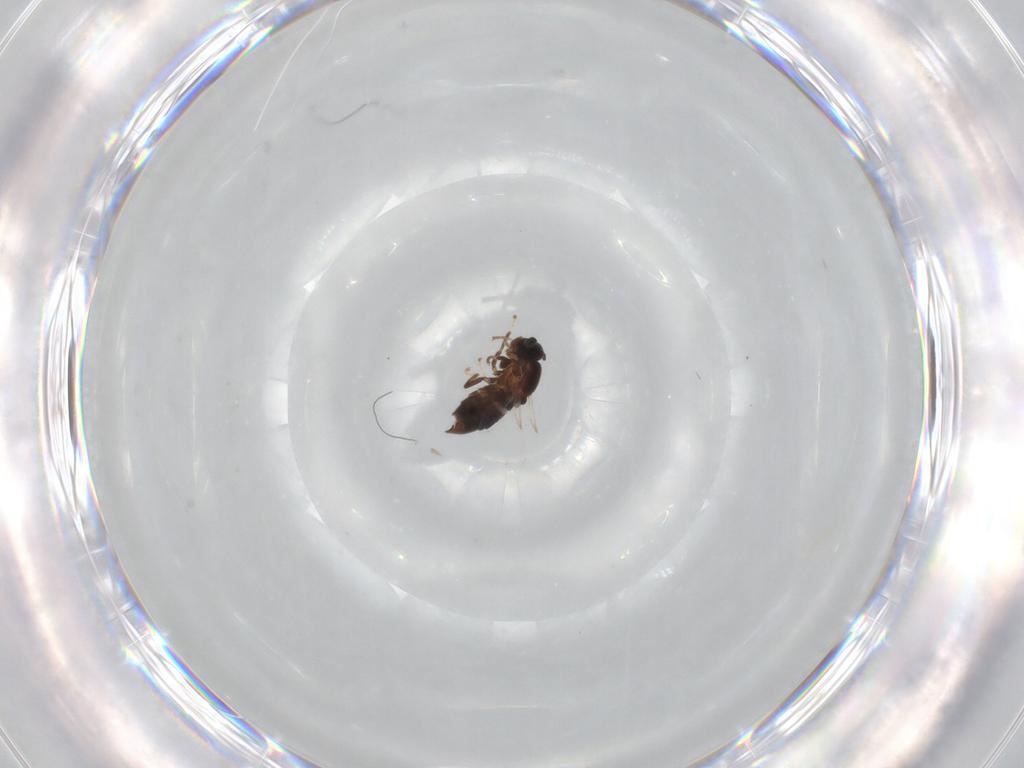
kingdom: Animalia
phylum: Arthropoda
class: Insecta
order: Diptera
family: Scatopsidae
